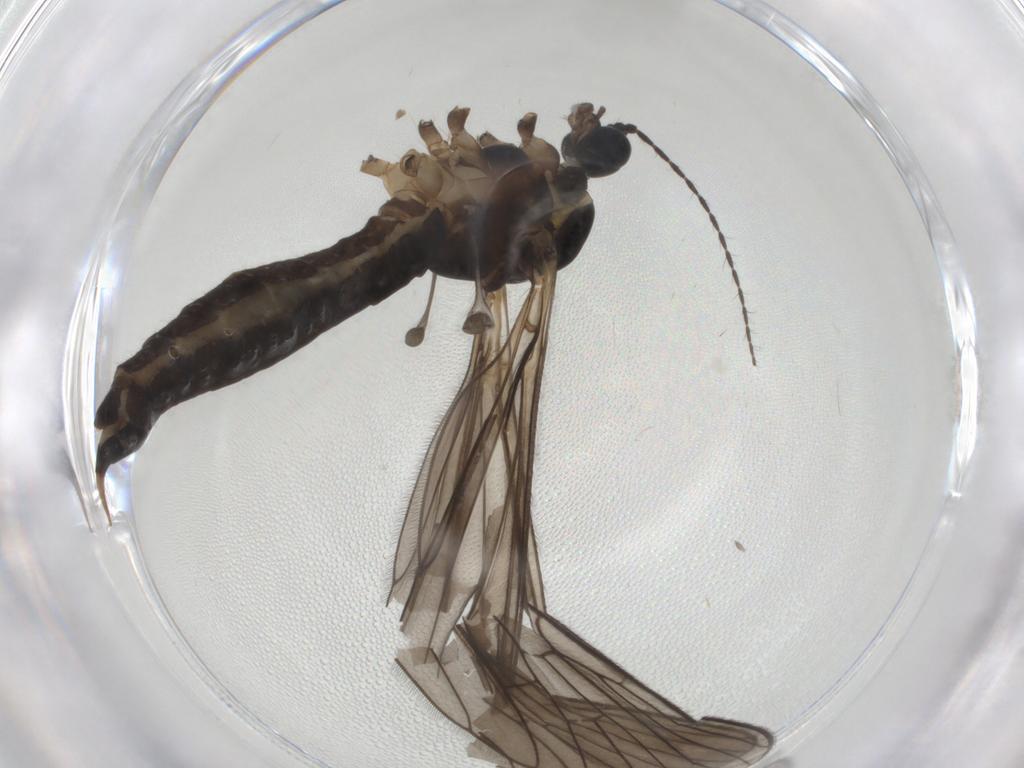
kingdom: Animalia
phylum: Arthropoda
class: Insecta
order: Diptera
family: Drosophilidae
